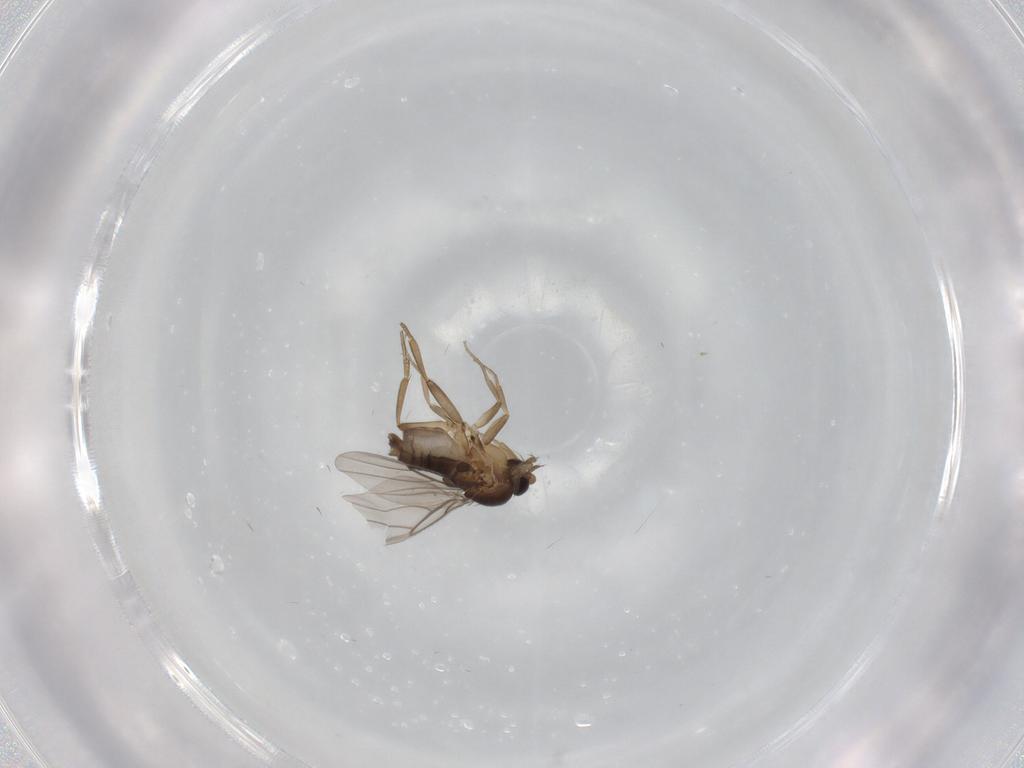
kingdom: Animalia
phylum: Arthropoda
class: Insecta
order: Diptera
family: Phoridae
